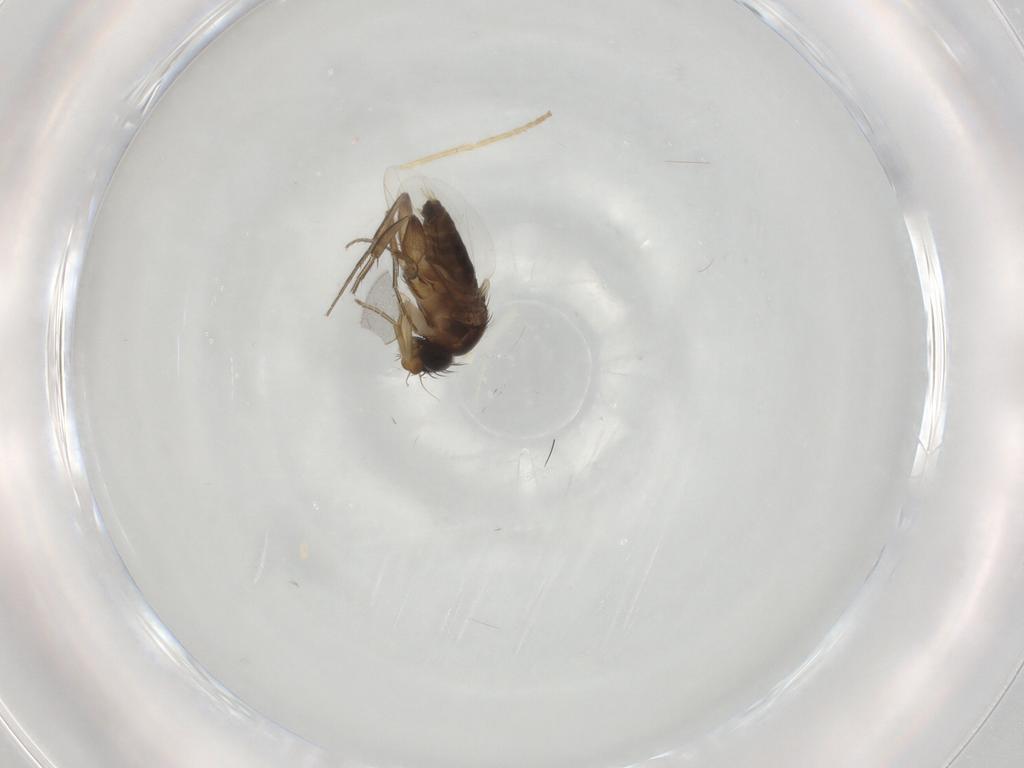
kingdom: Animalia
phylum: Arthropoda
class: Insecta
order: Diptera
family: Phoridae
